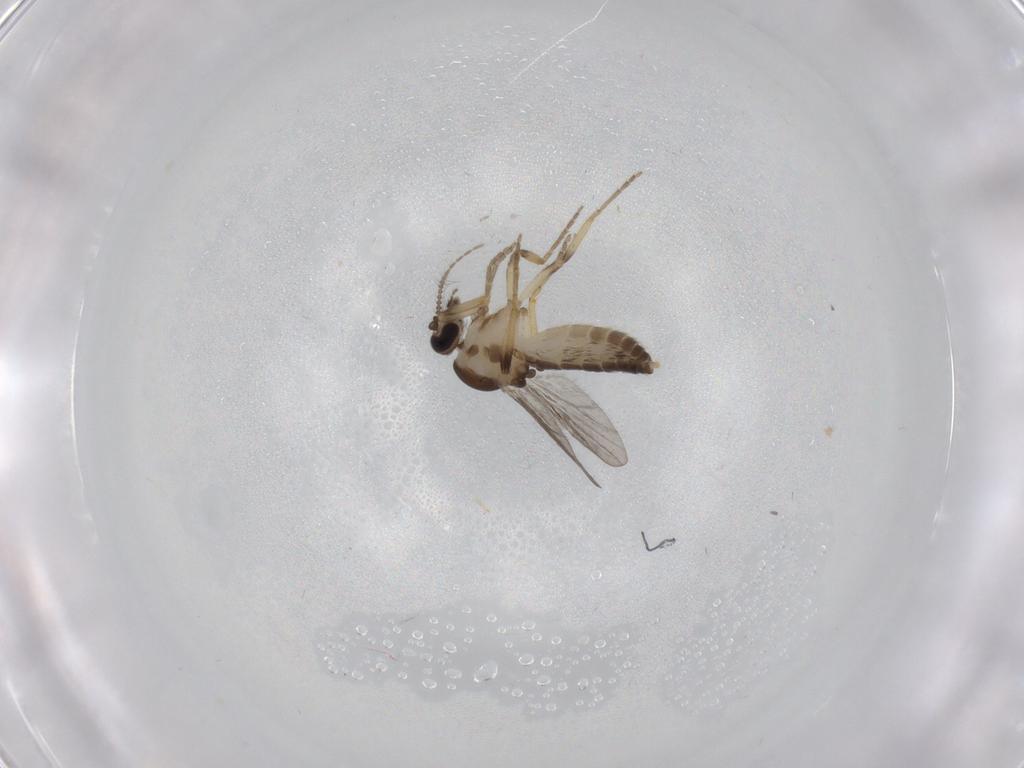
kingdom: Animalia
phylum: Arthropoda
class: Insecta
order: Diptera
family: Ceratopogonidae
